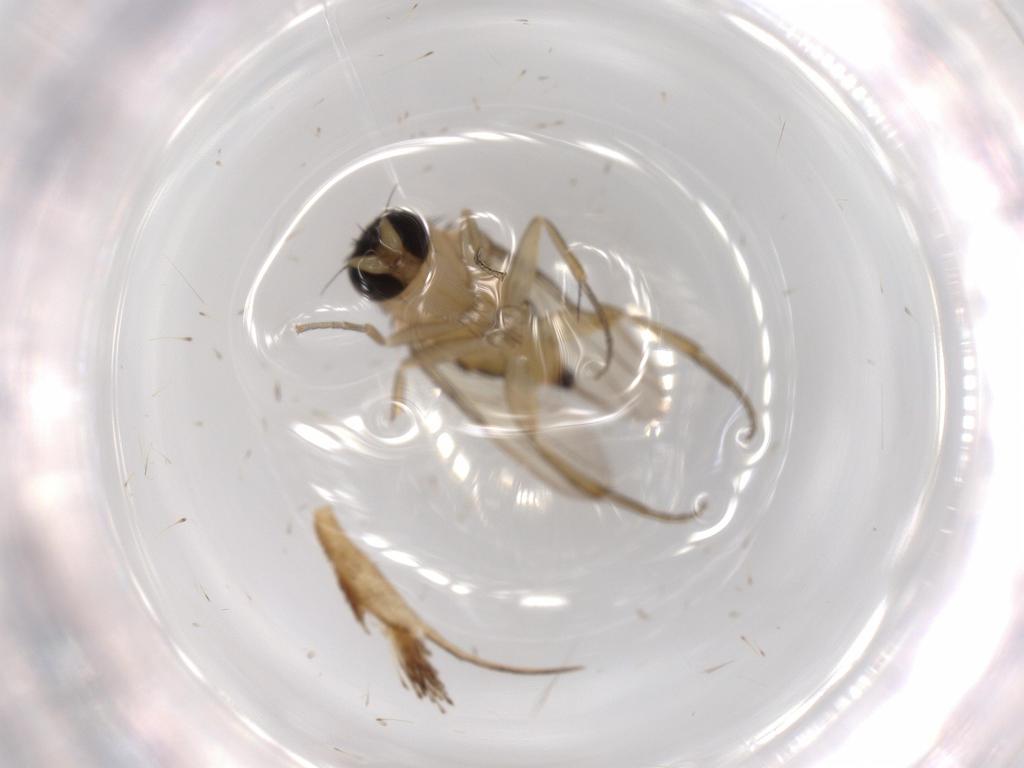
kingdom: Animalia
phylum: Arthropoda
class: Insecta
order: Diptera
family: Phoridae
